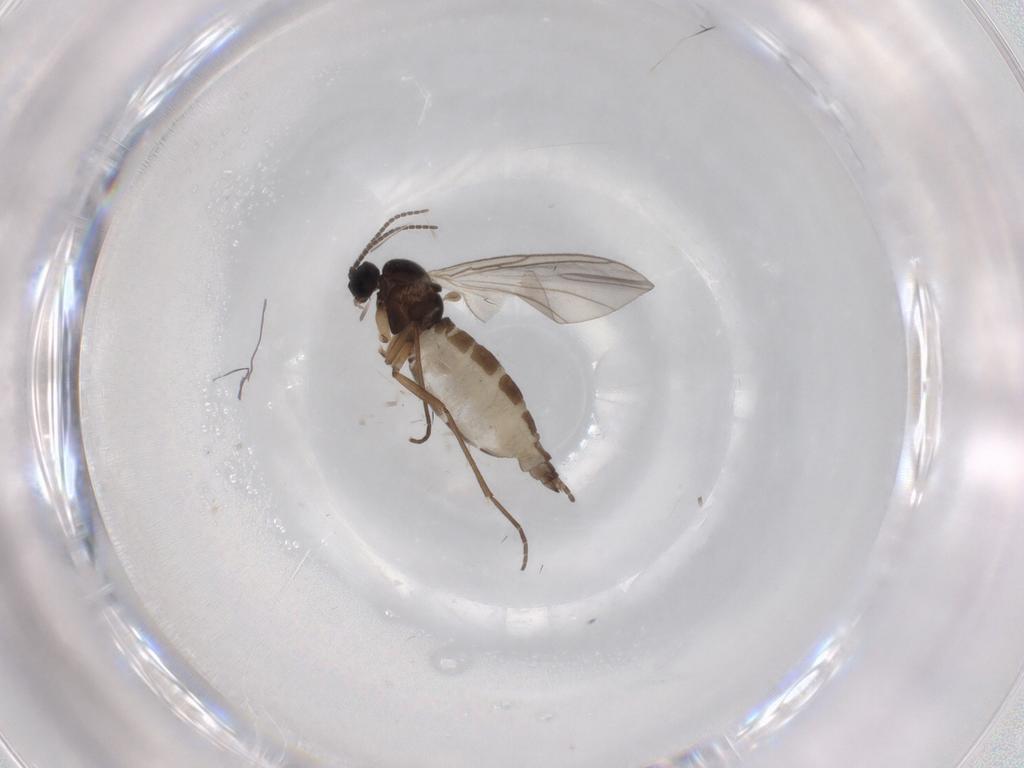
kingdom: Animalia
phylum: Arthropoda
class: Insecta
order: Diptera
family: Sciaridae
